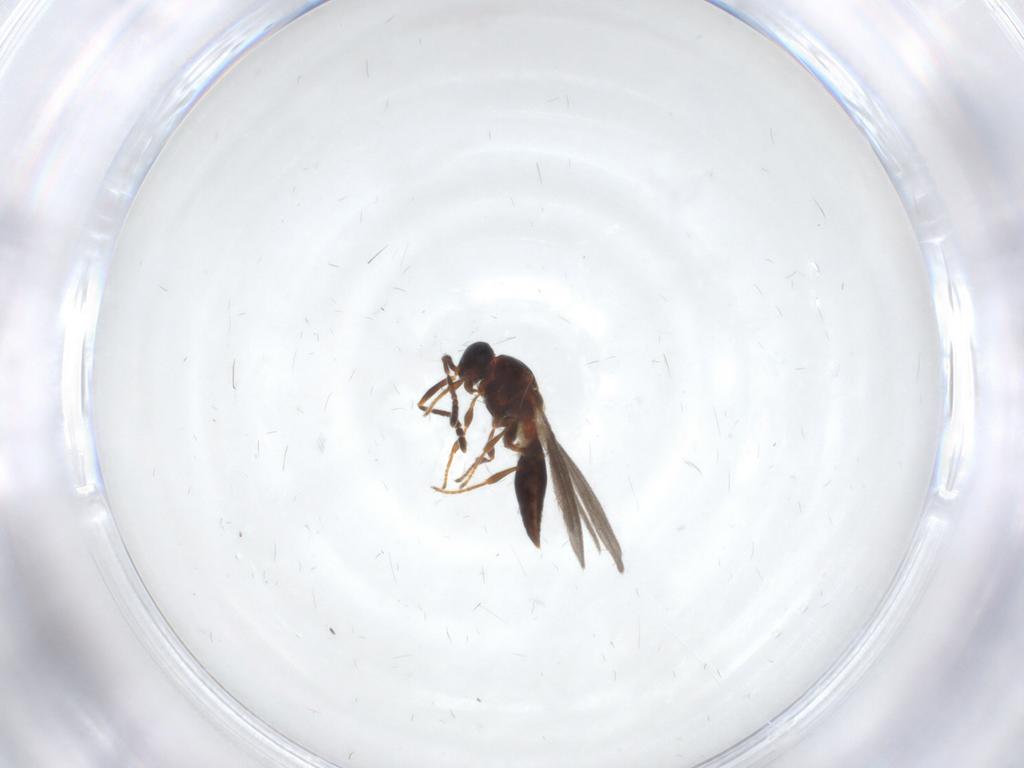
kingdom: Animalia
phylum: Arthropoda
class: Insecta
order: Hymenoptera
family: Platygastridae
